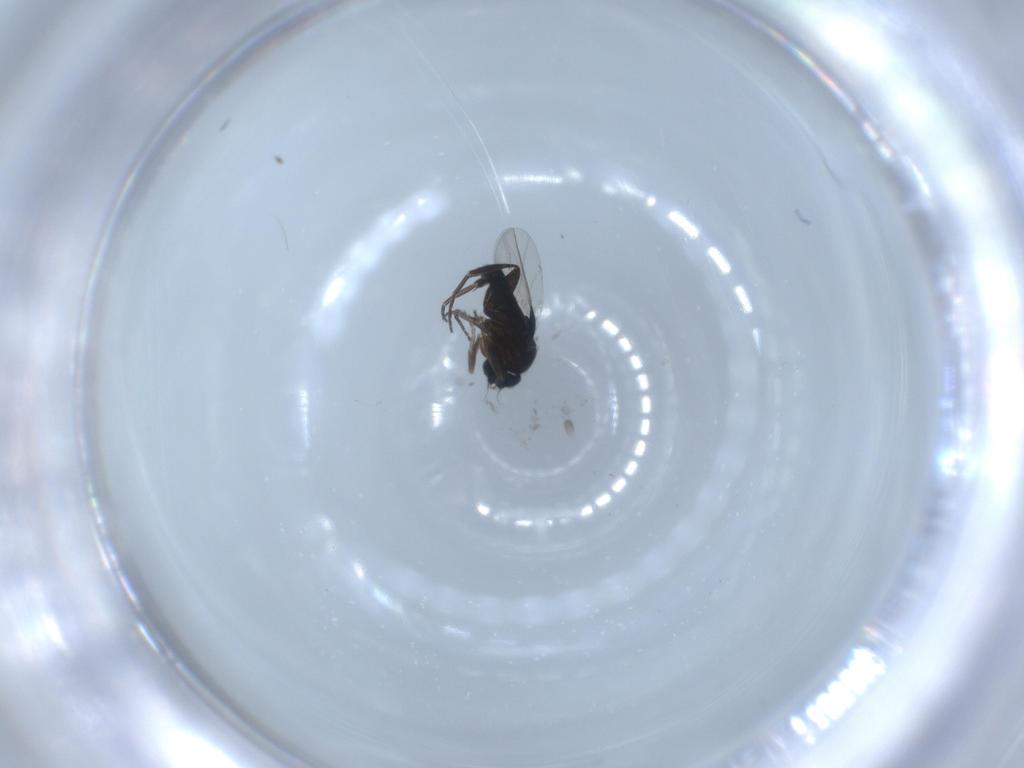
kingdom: Animalia
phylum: Arthropoda
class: Insecta
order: Diptera
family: Phoridae
